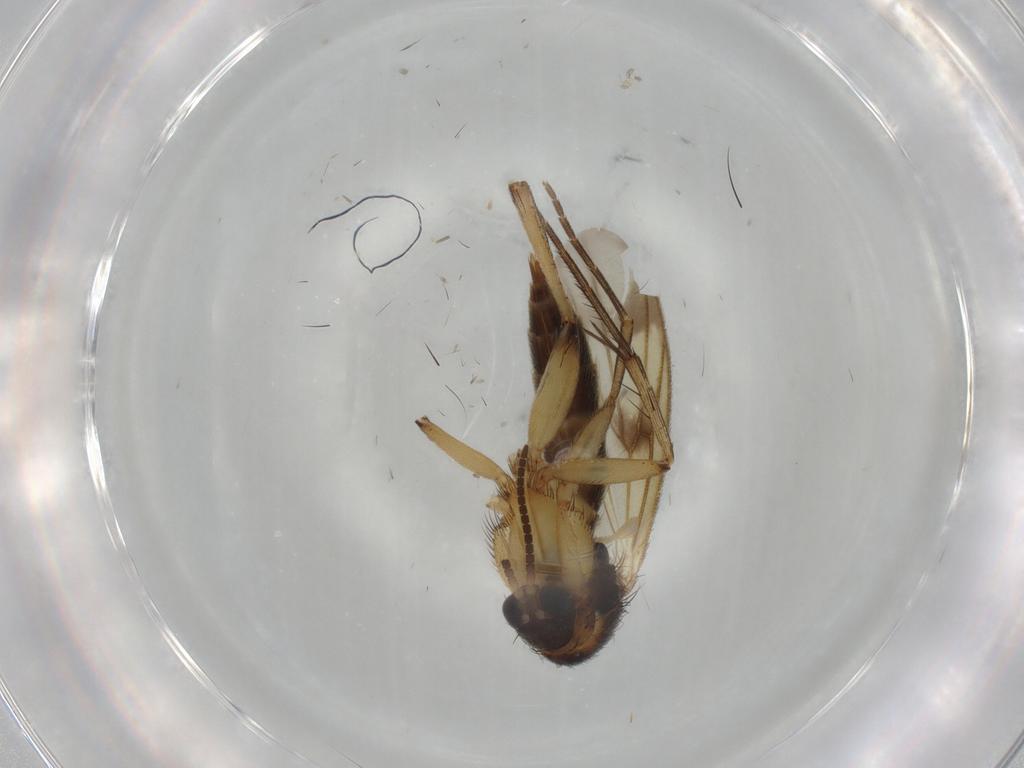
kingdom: Animalia
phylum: Arthropoda
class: Insecta
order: Diptera
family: Mycetophilidae
